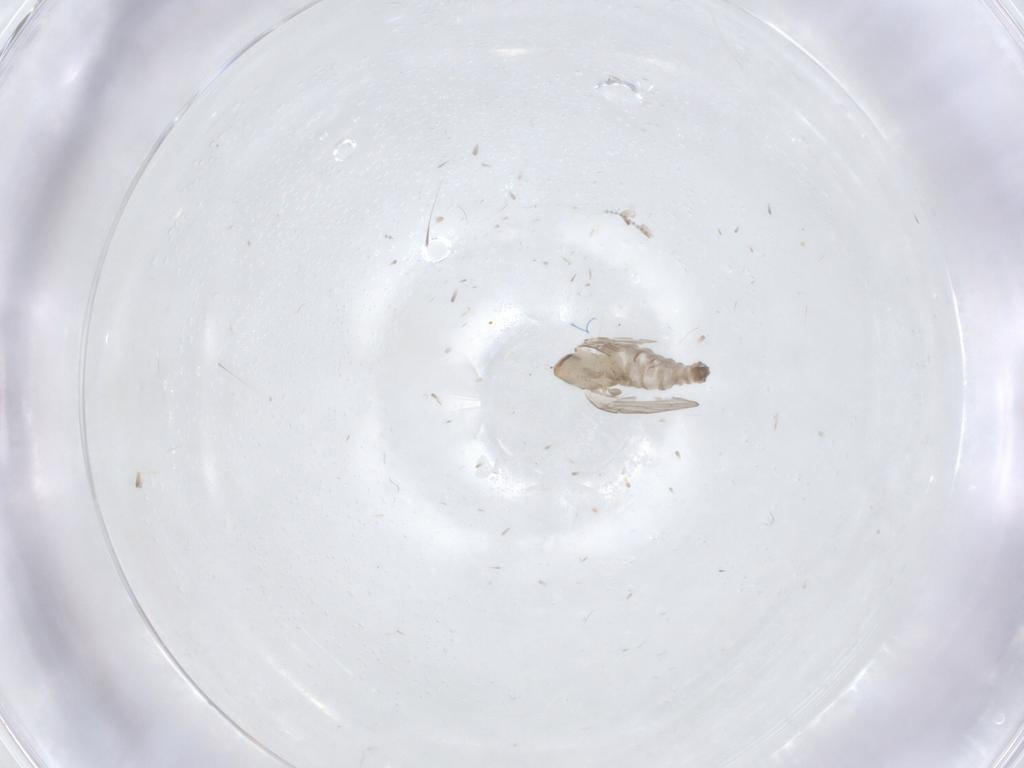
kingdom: Animalia
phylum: Arthropoda
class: Insecta
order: Diptera
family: Psychodidae
